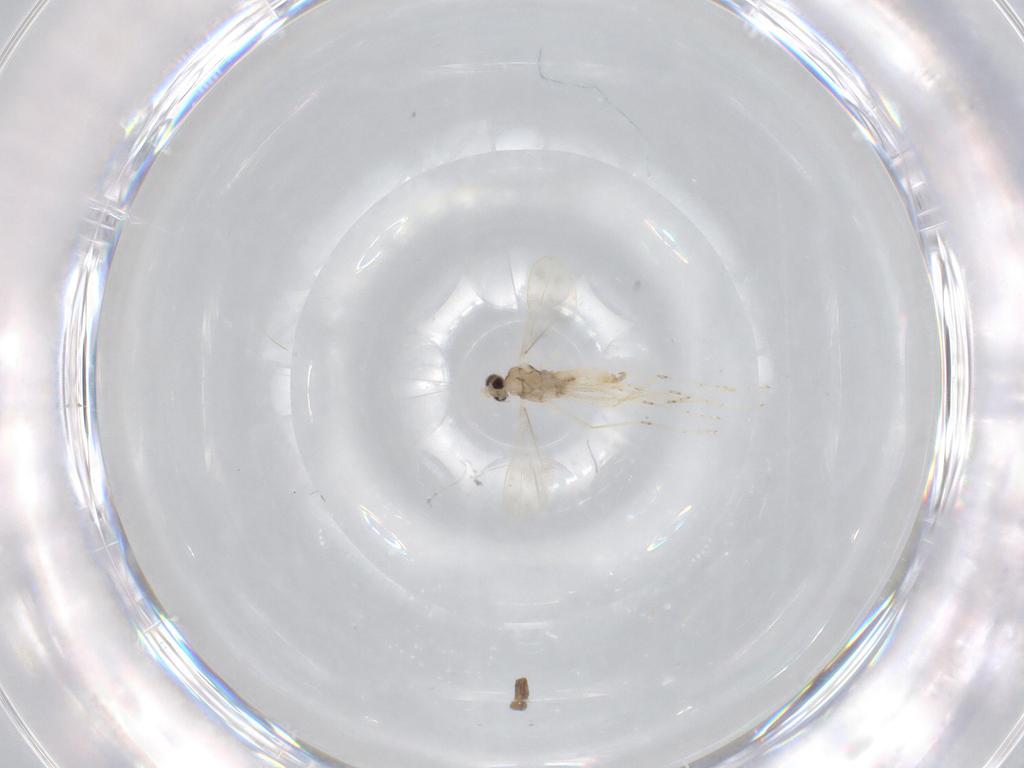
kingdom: Animalia
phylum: Arthropoda
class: Insecta
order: Diptera
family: Cecidomyiidae
